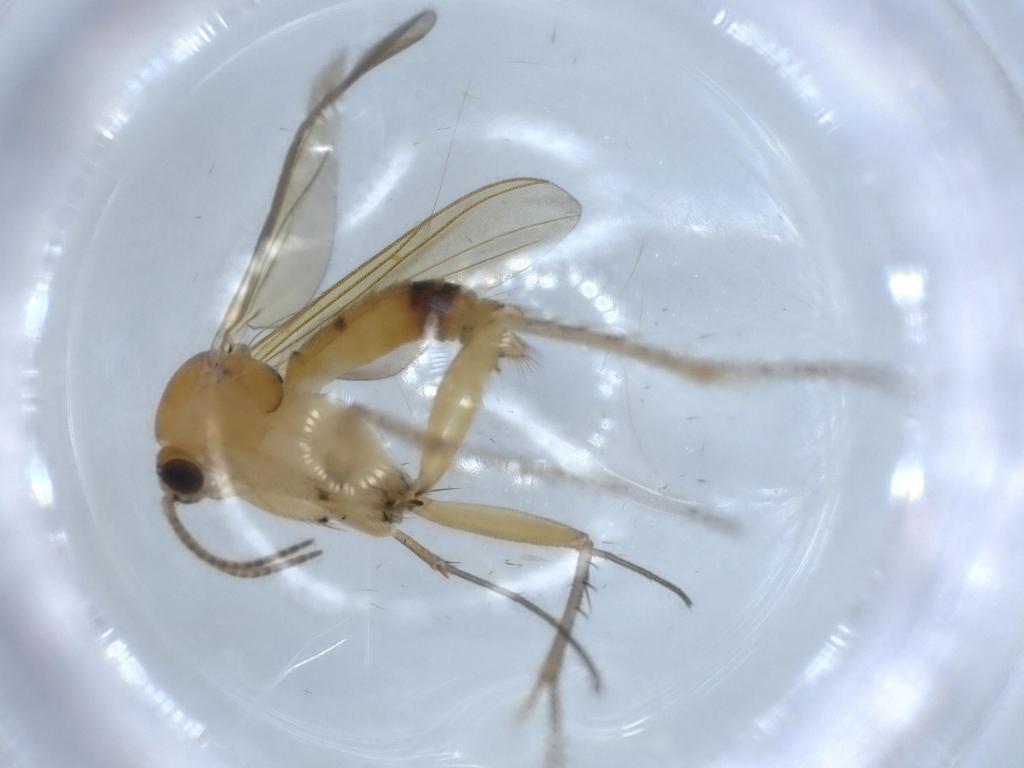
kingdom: Animalia
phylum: Arthropoda
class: Insecta
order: Diptera
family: Mycetophilidae
